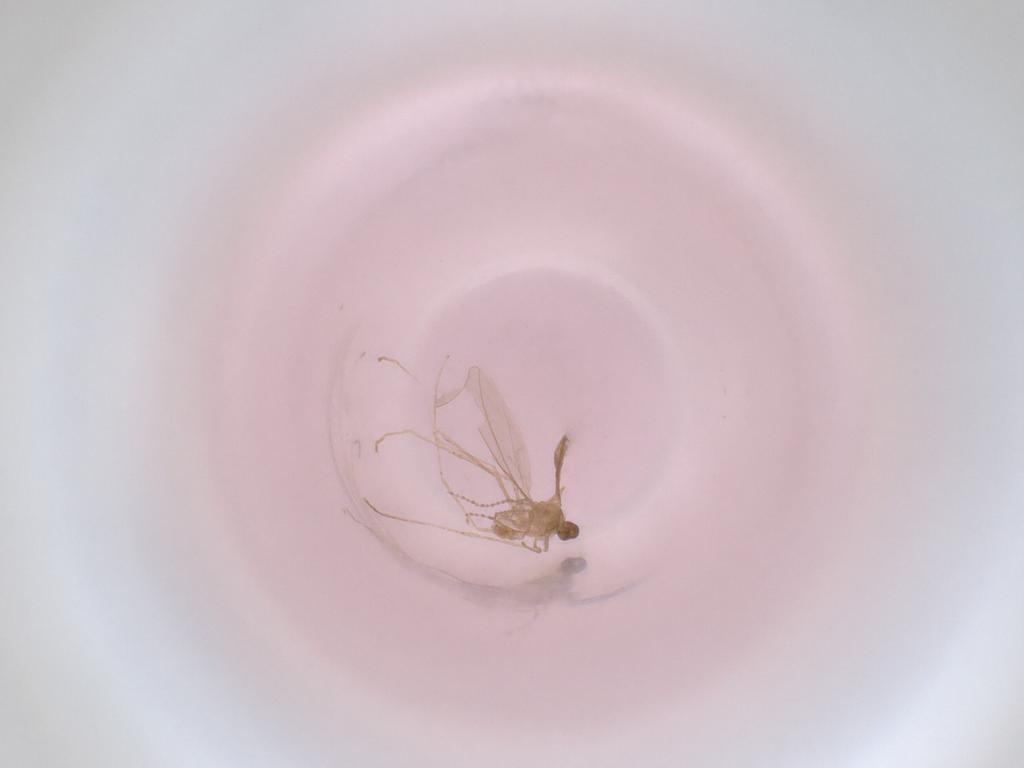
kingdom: Animalia
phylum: Arthropoda
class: Insecta
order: Diptera
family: Cecidomyiidae
